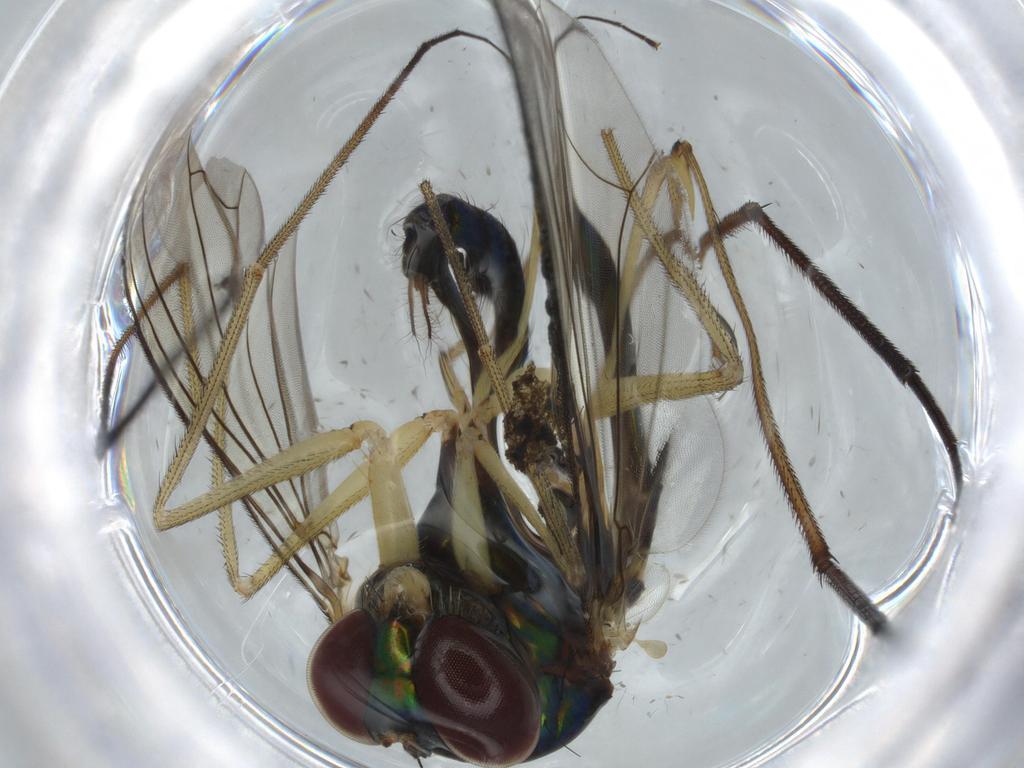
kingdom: Animalia
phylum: Arthropoda
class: Insecta
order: Diptera
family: Dolichopodidae
